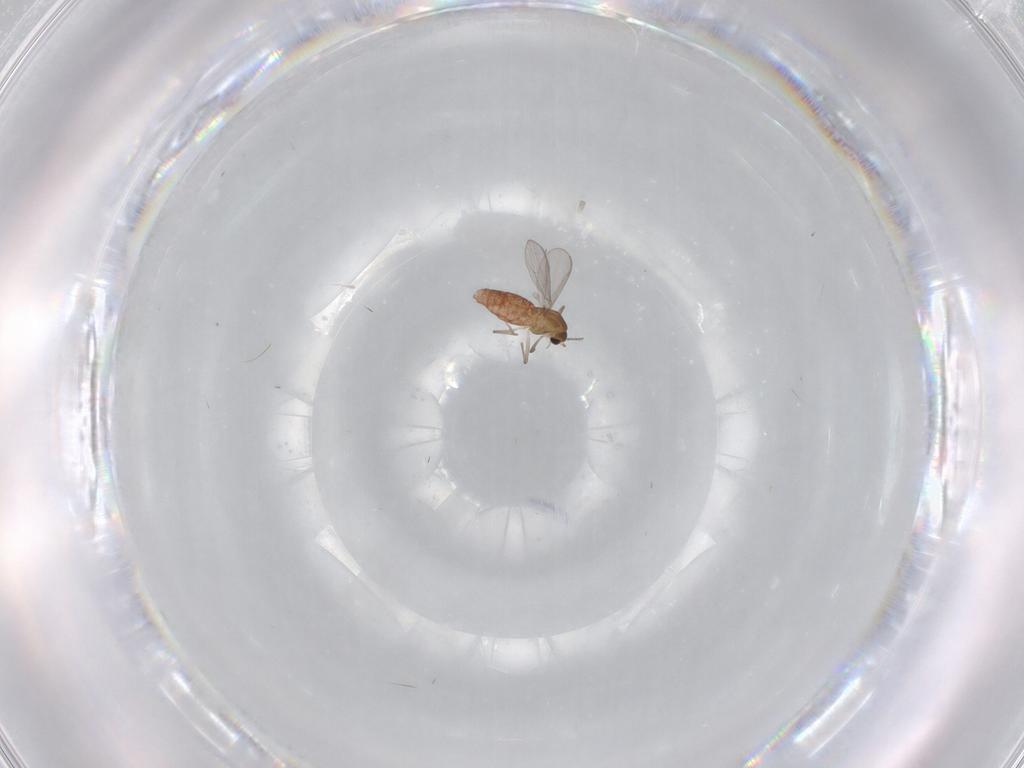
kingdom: Animalia
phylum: Arthropoda
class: Insecta
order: Diptera
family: Chironomidae
